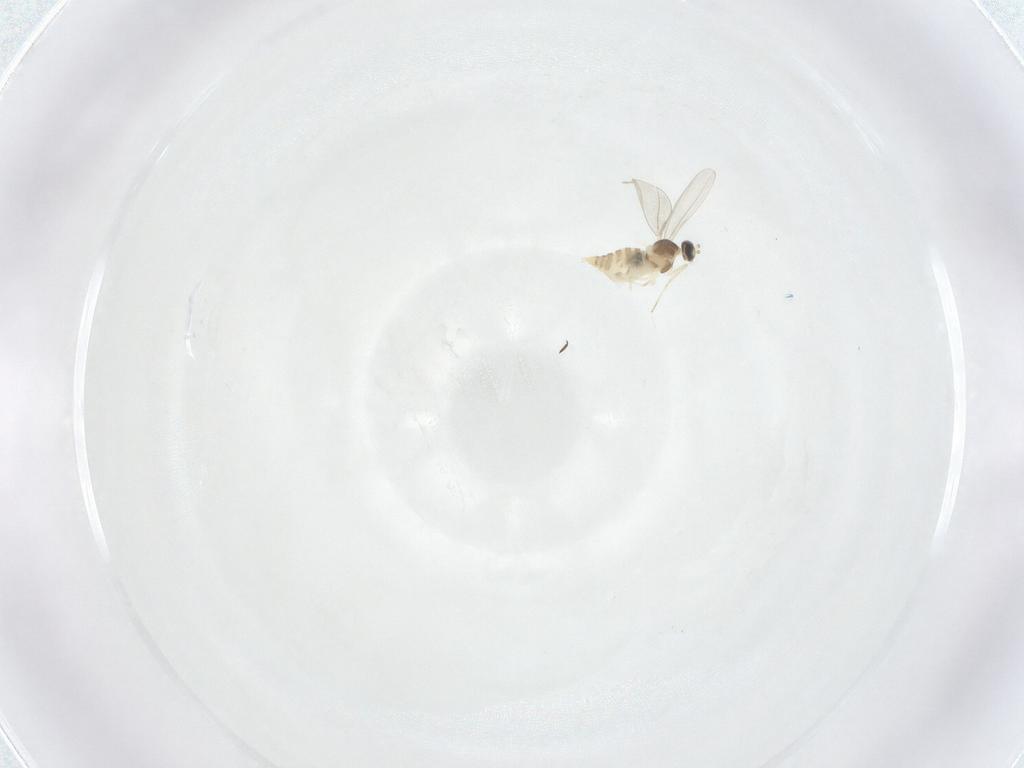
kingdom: Animalia
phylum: Arthropoda
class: Insecta
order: Diptera
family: Cecidomyiidae
